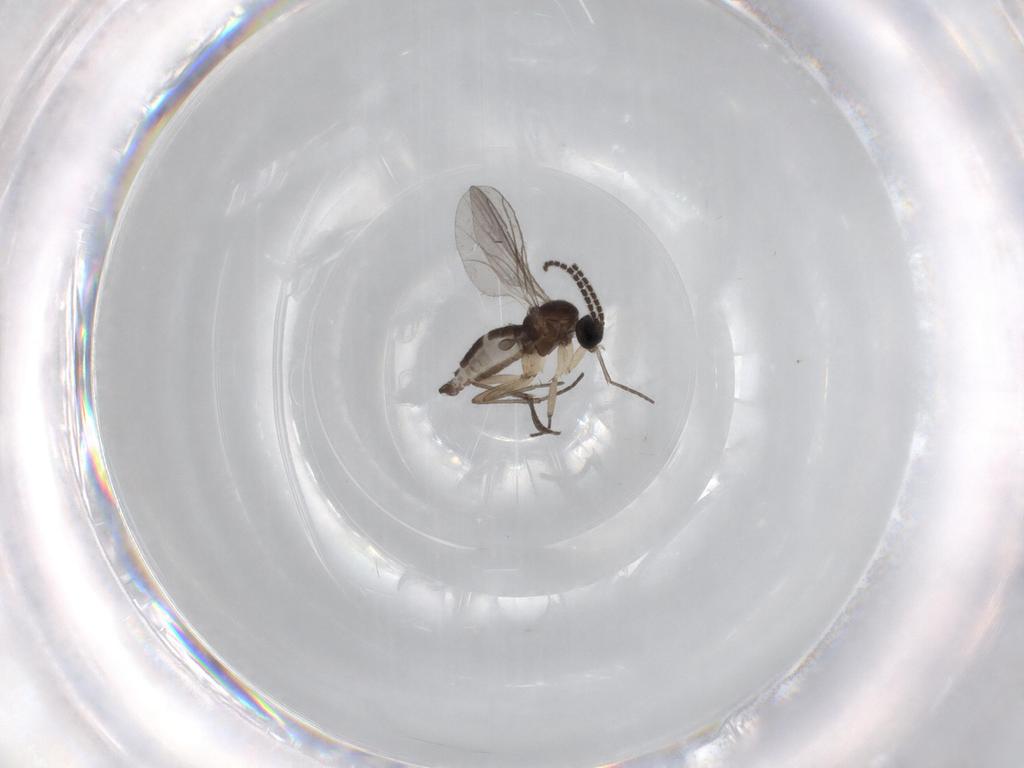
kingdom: Animalia
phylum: Arthropoda
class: Insecta
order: Diptera
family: Sciaridae
